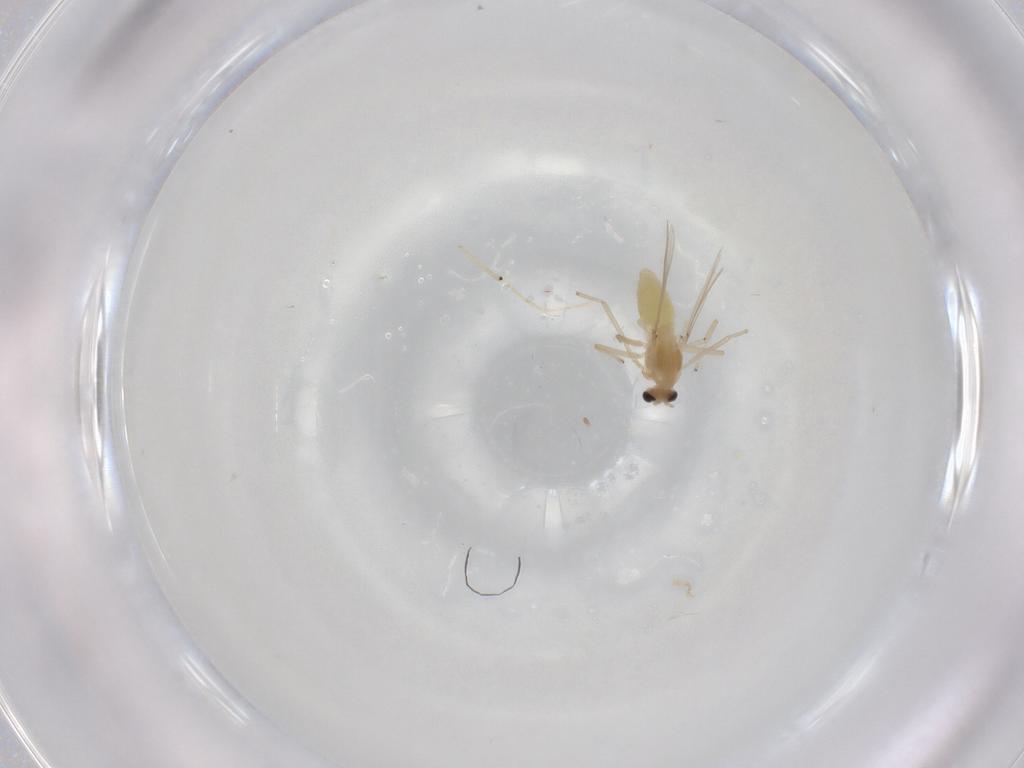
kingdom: Animalia
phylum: Arthropoda
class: Insecta
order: Diptera
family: Chironomidae
